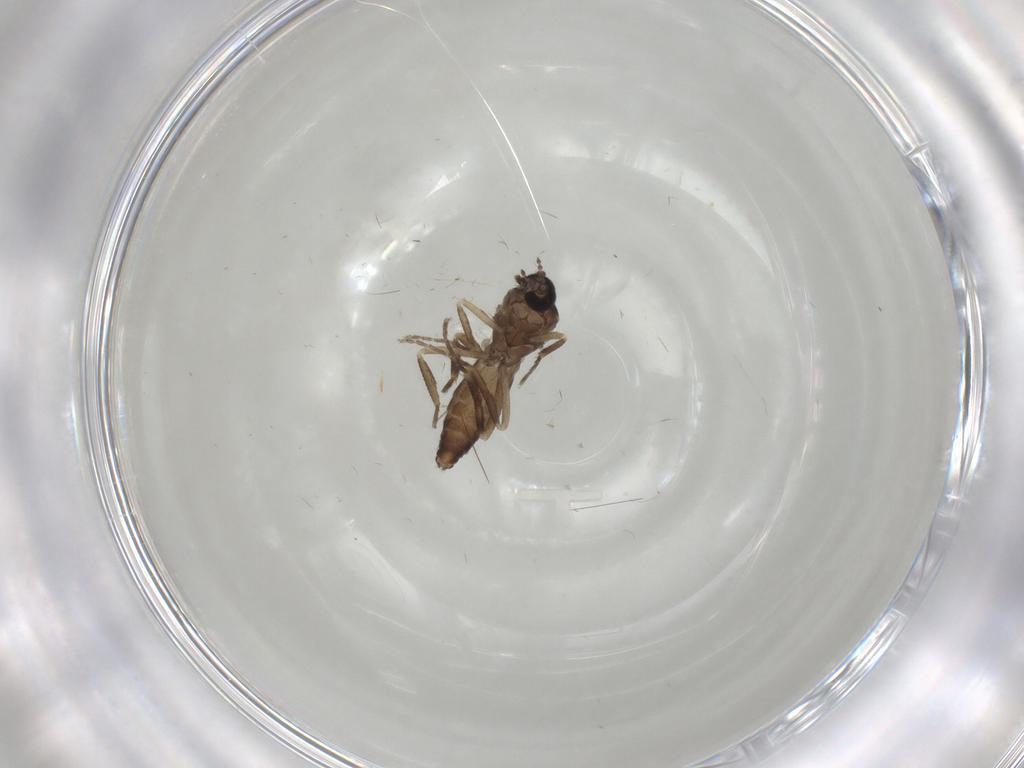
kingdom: Animalia
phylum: Arthropoda
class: Insecta
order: Diptera
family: Ceratopogonidae
